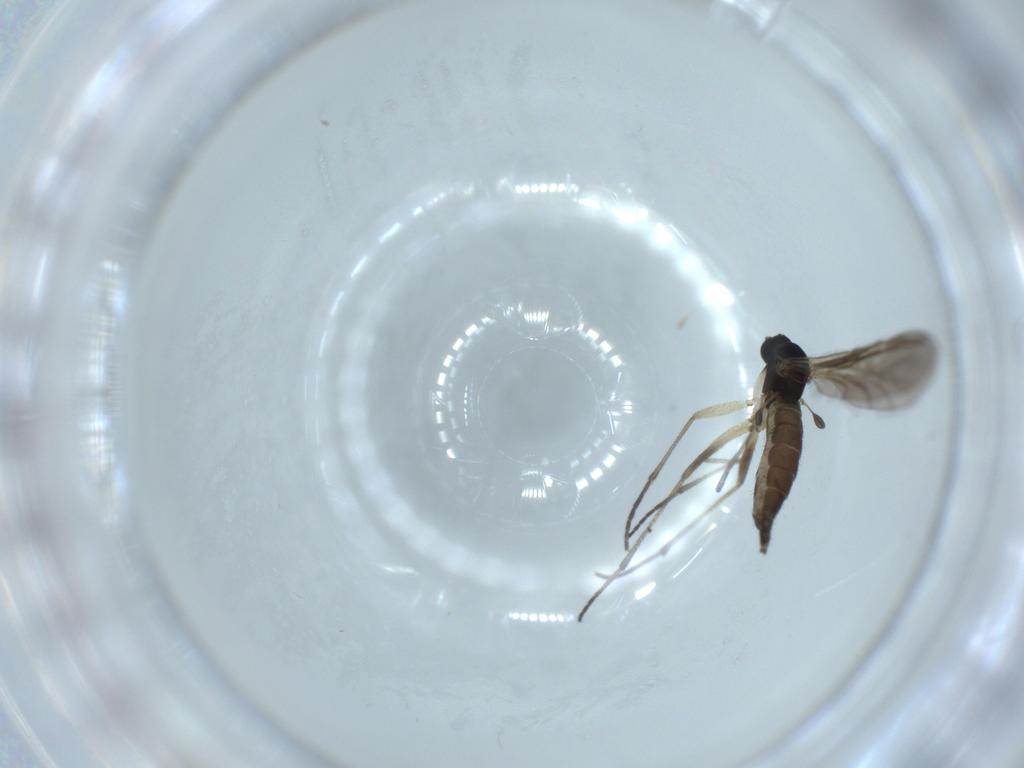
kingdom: Animalia
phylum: Arthropoda
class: Insecta
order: Diptera
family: Sciaridae
